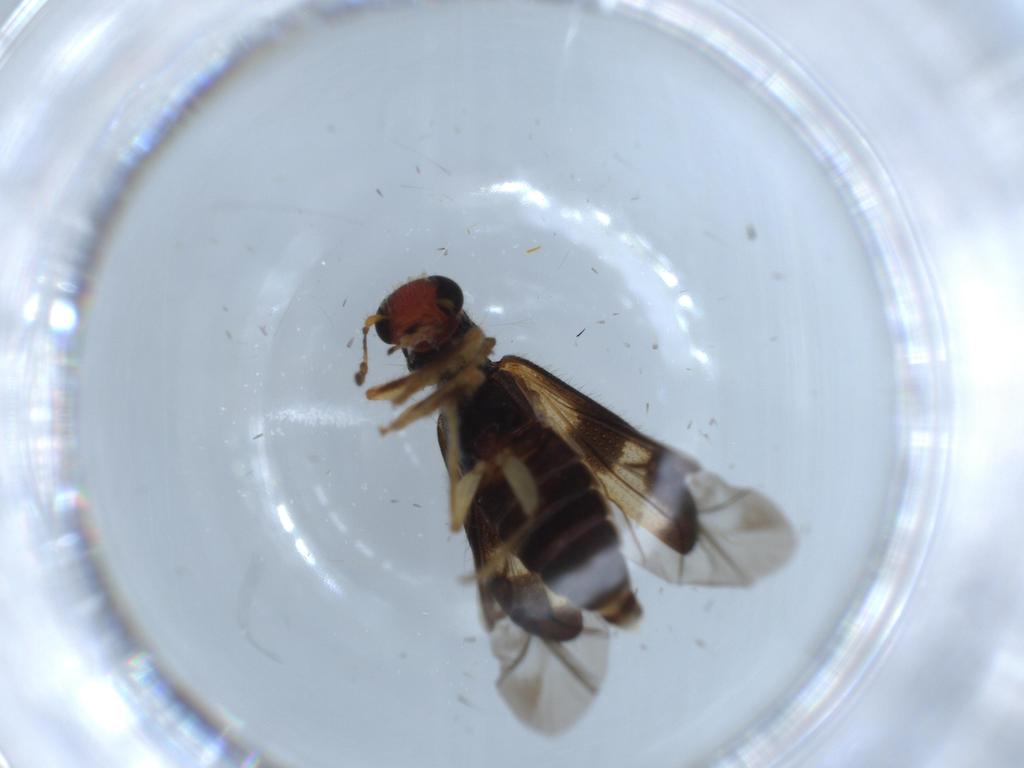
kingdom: Animalia
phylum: Arthropoda
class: Insecta
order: Coleoptera
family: Cleridae
